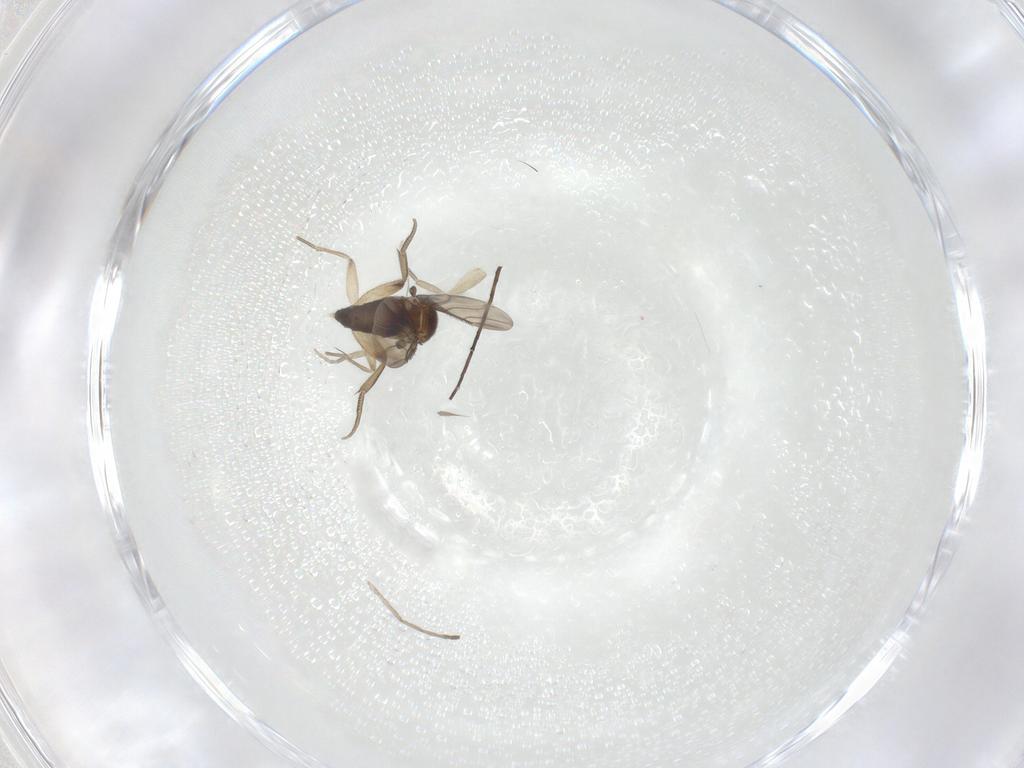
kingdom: Animalia
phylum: Arthropoda
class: Insecta
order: Diptera
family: Phoridae
